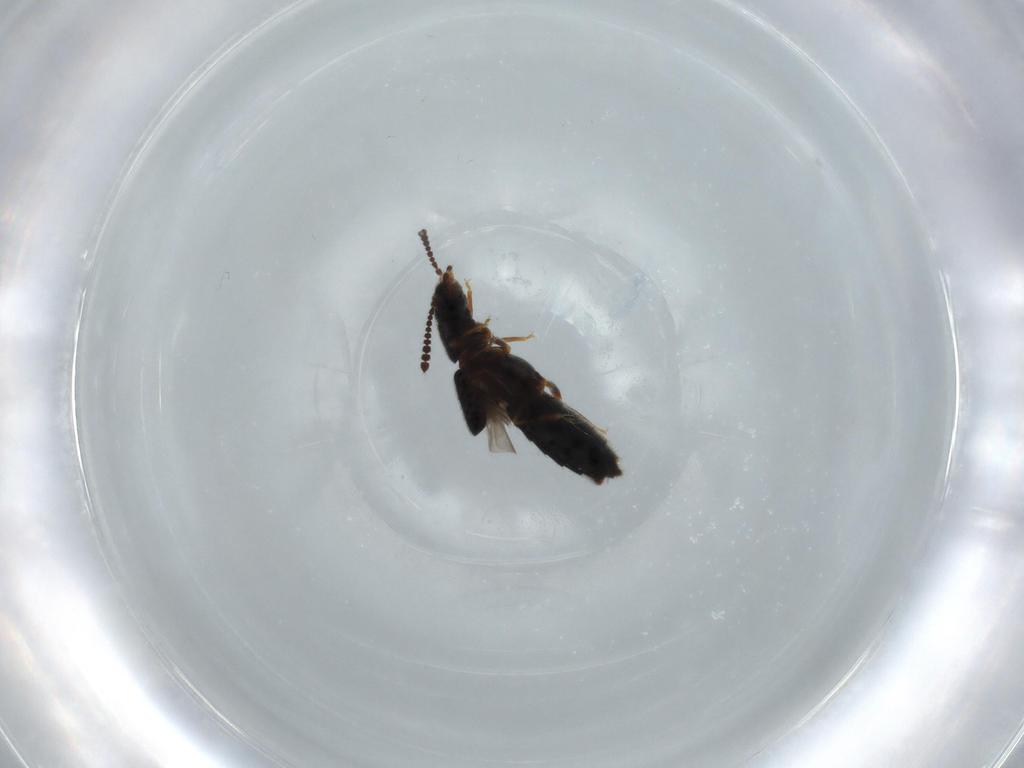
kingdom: Animalia
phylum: Arthropoda
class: Insecta
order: Coleoptera
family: Staphylinidae
